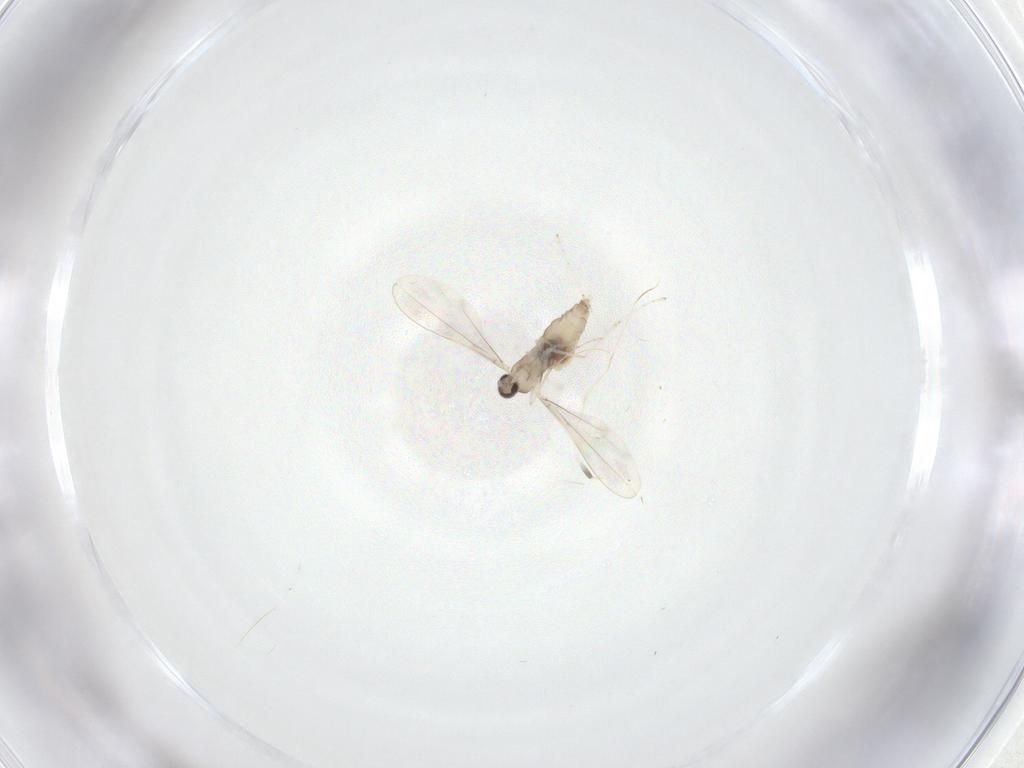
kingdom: Animalia
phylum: Arthropoda
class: Insecta
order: Diptera
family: Cecidomyiidae
